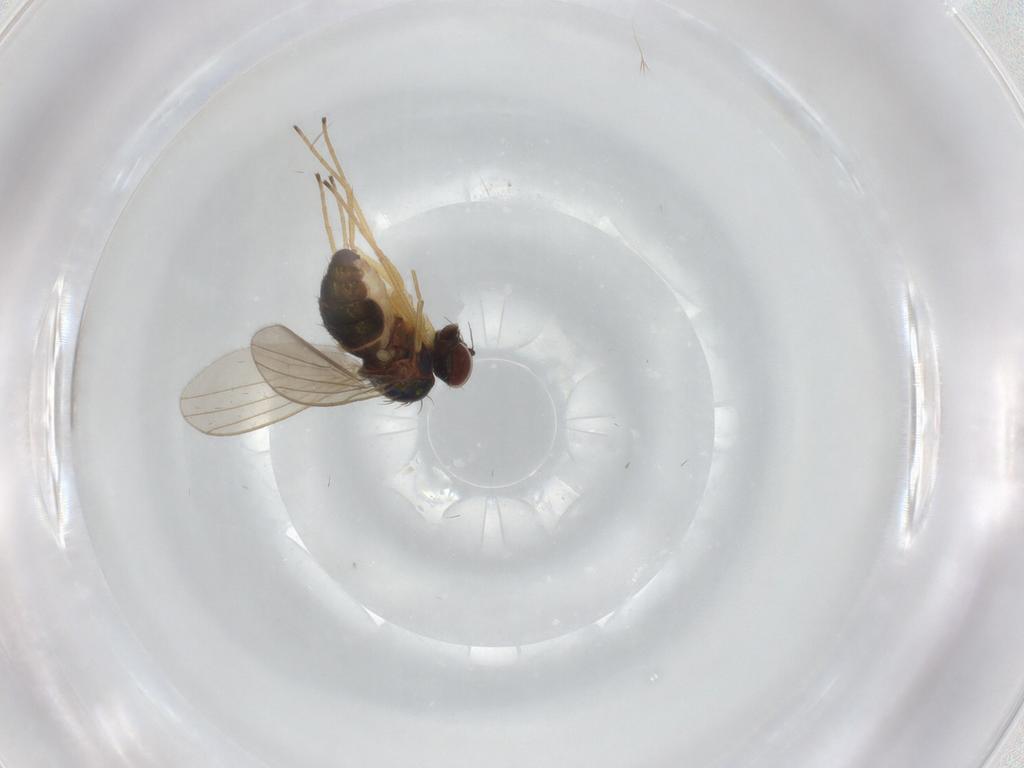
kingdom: Animalia
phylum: Arthropoda
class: Insecta
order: Diptera
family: Dolichopodidae
